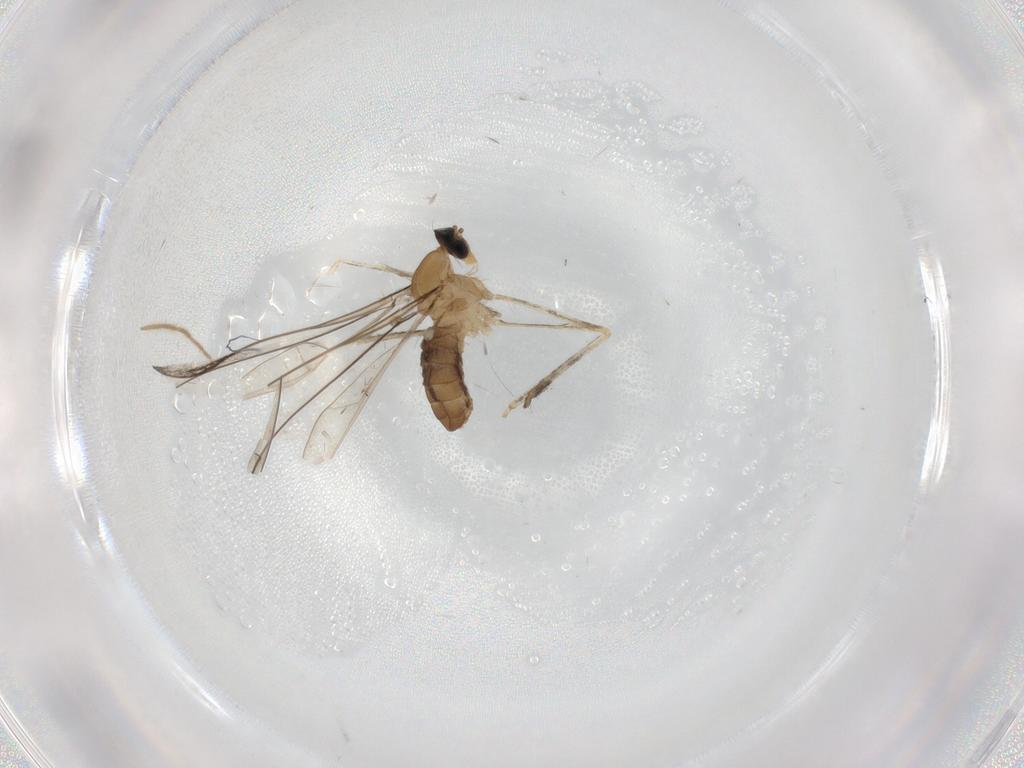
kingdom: Animalia
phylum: Arthropoda
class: Insecta
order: Diptera
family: Cecidomyiidae
